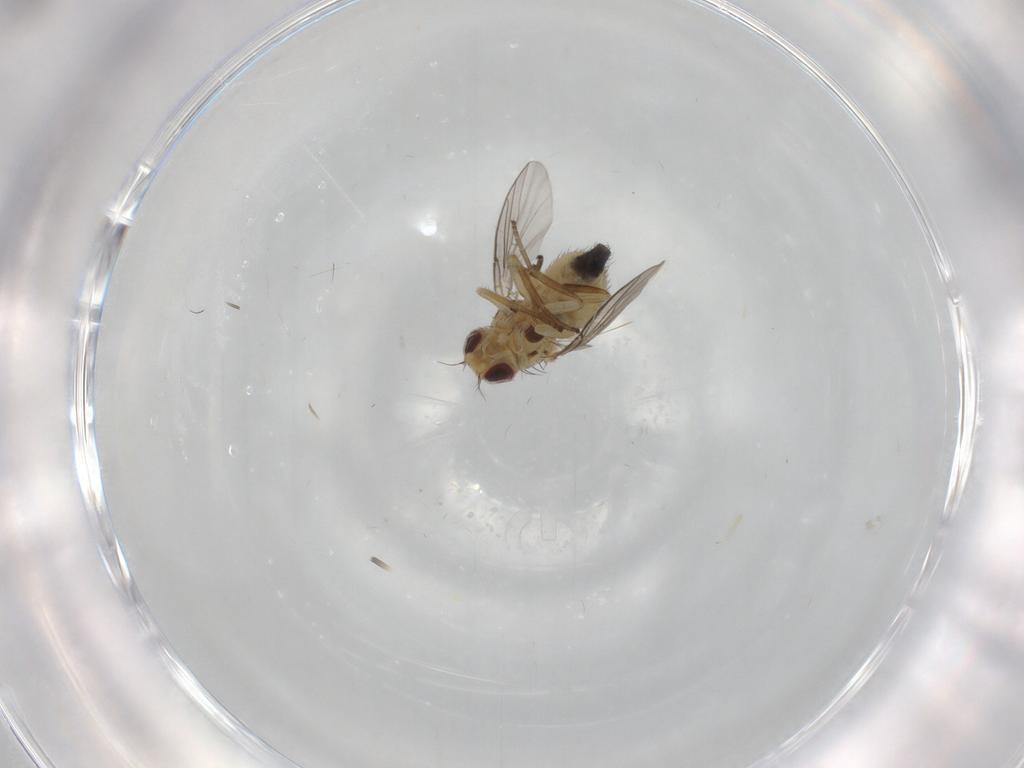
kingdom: Animalia
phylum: Arthropoda
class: Insecta
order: Diptera
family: Agromyzidae
